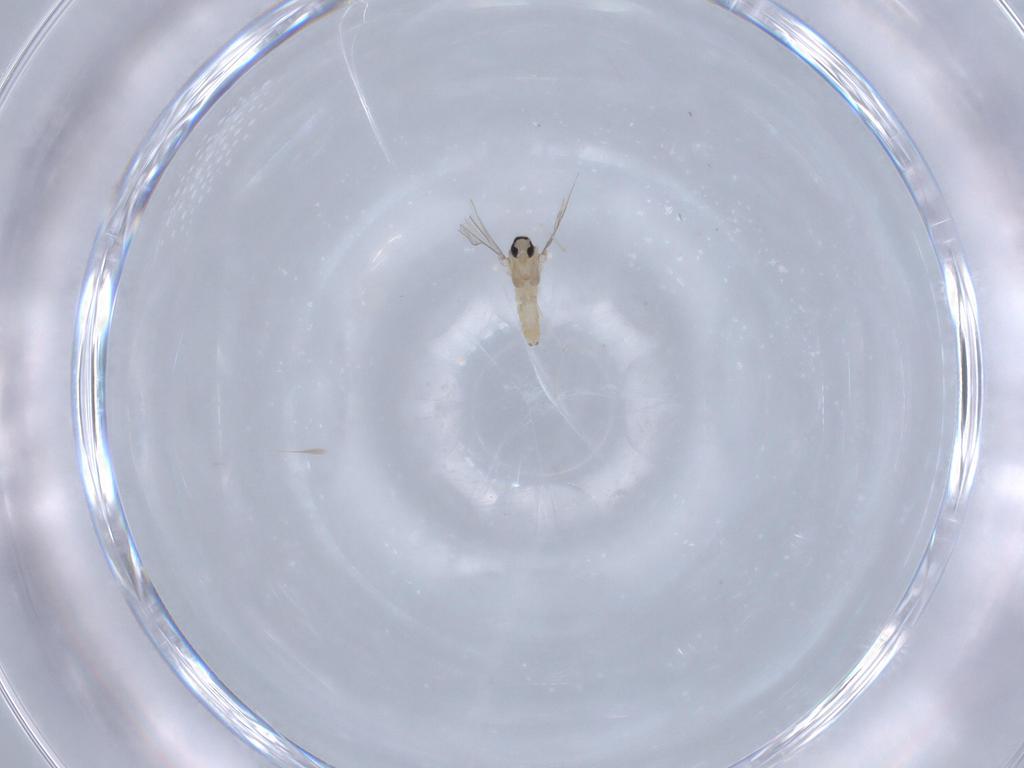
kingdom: Animalia
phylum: Arthropoda
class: Insecta
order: Diptera
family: Cecidomyiidae
